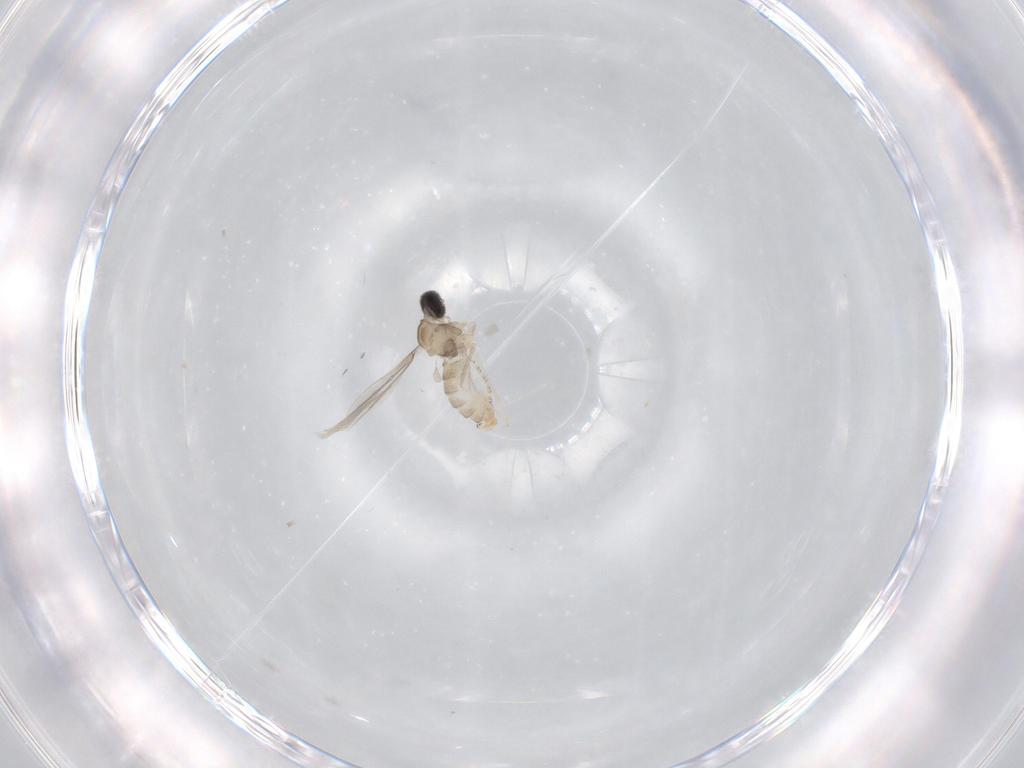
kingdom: Animalia
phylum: Arthropoda
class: Insecta
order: Diptera
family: Cecidomyiidae
